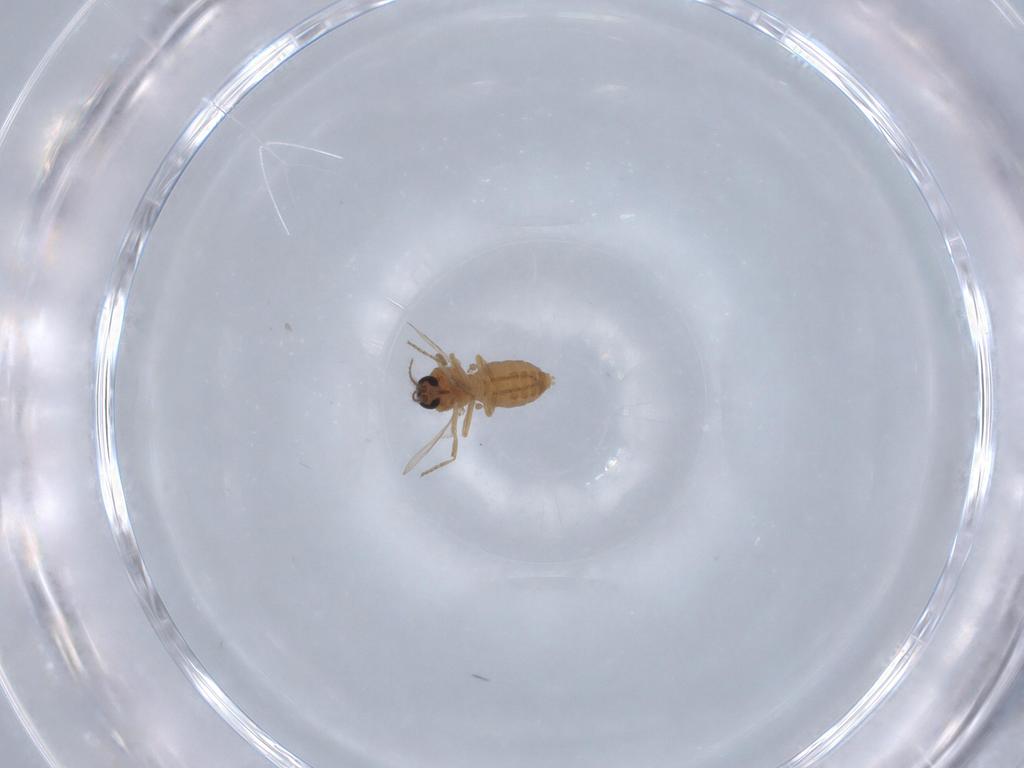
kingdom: Animalia
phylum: Arthropoda
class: Insecta
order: Diptera
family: Ceratopogonidae
